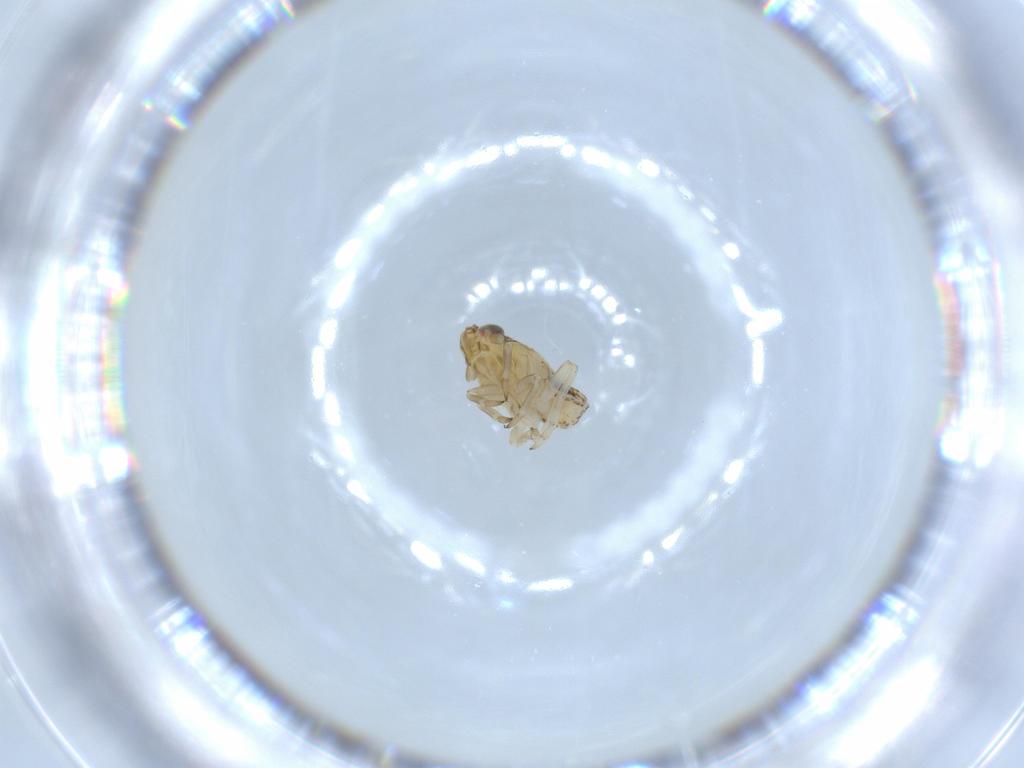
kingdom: Animalia
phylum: Arthropoda
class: Insecta
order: Hemiptera
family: Delphacidae
